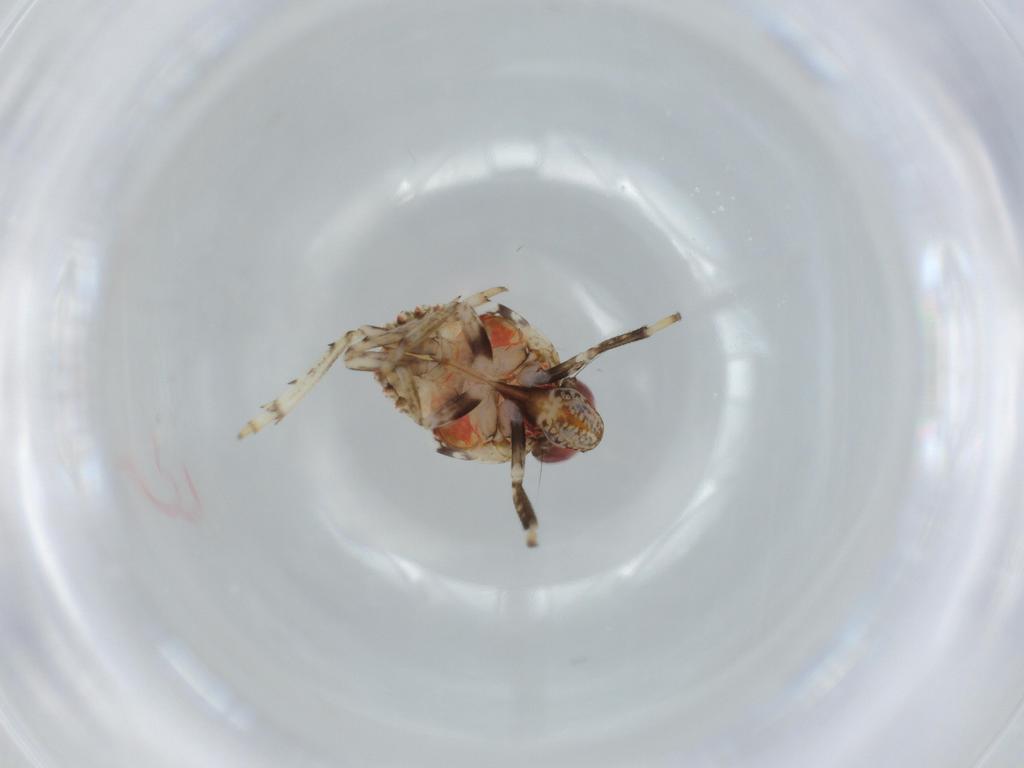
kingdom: Animalia
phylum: Arthropoda
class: Insecta
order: Hemiptera
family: Issidae
